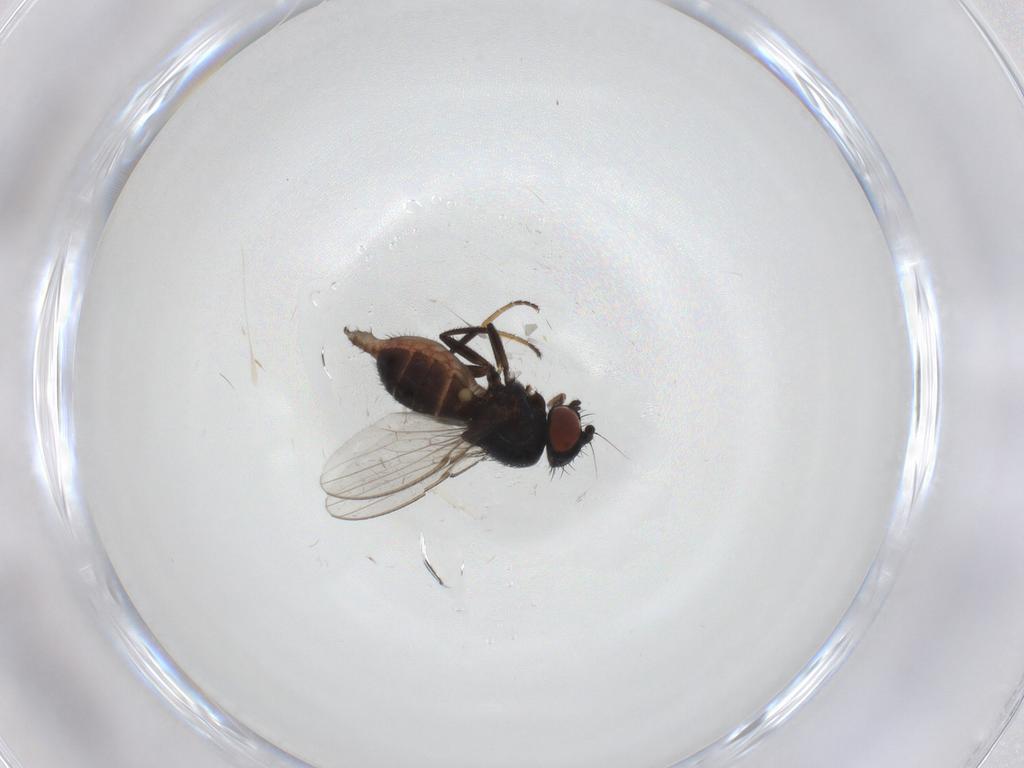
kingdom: Animalia
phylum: Arthropoda
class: Insecta
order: Diptera
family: Milichiidae
